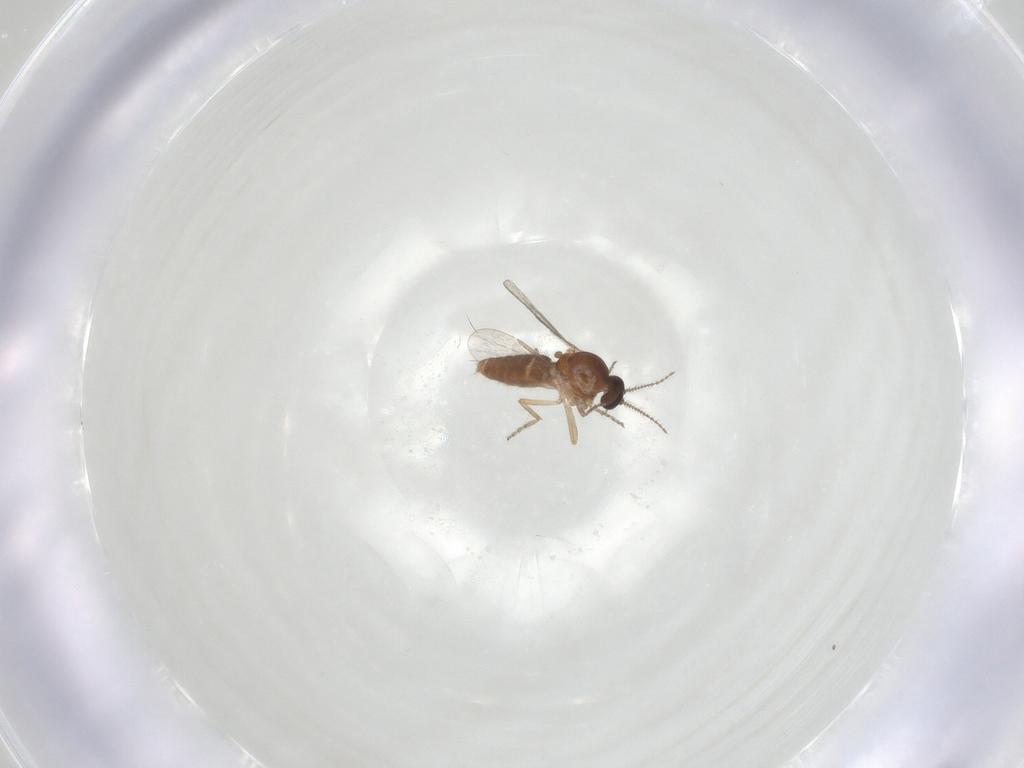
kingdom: Animalia
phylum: Arthropoda
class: Insecta
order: Diptera
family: Ceratopogonidae
